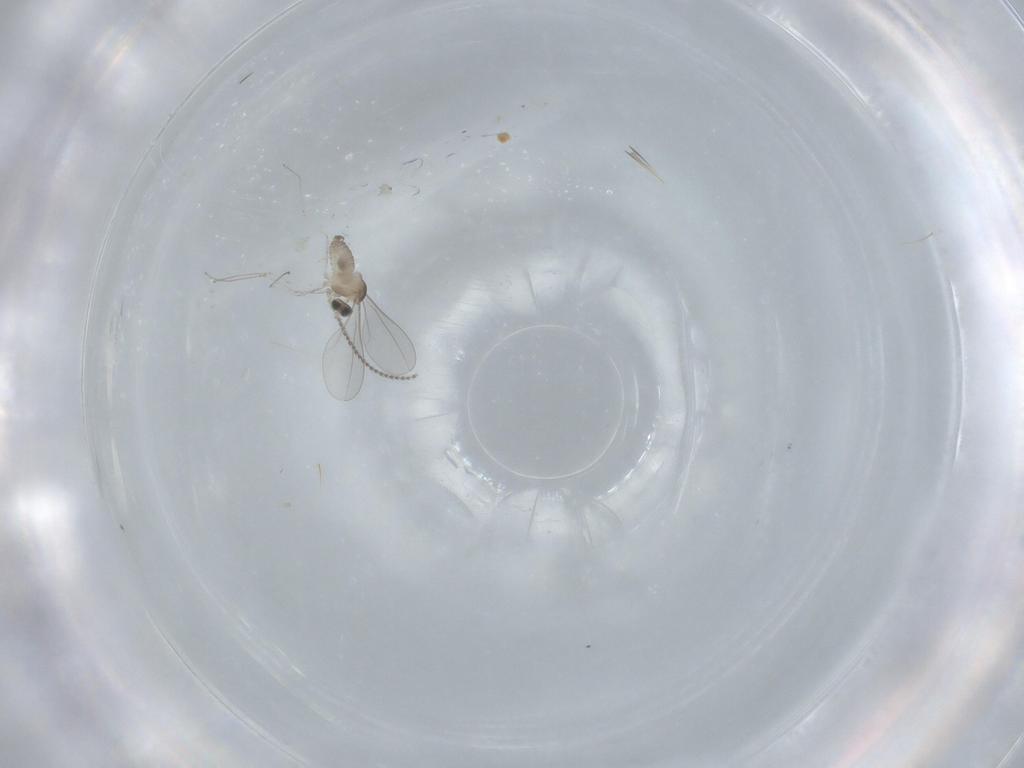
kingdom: Animalia
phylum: Arthropoda
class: Insecta
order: Diptera
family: Cecidomyiidae
